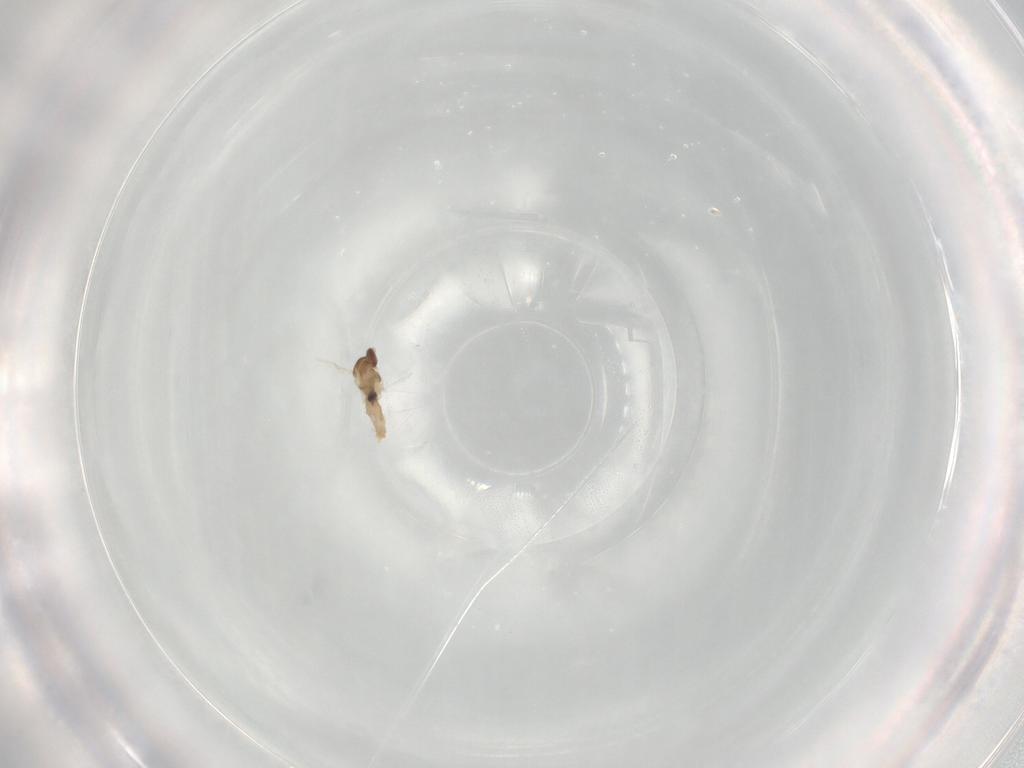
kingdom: Animalia
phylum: Arthropoda
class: Insecta
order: Diptera
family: Cecidomyiidae
